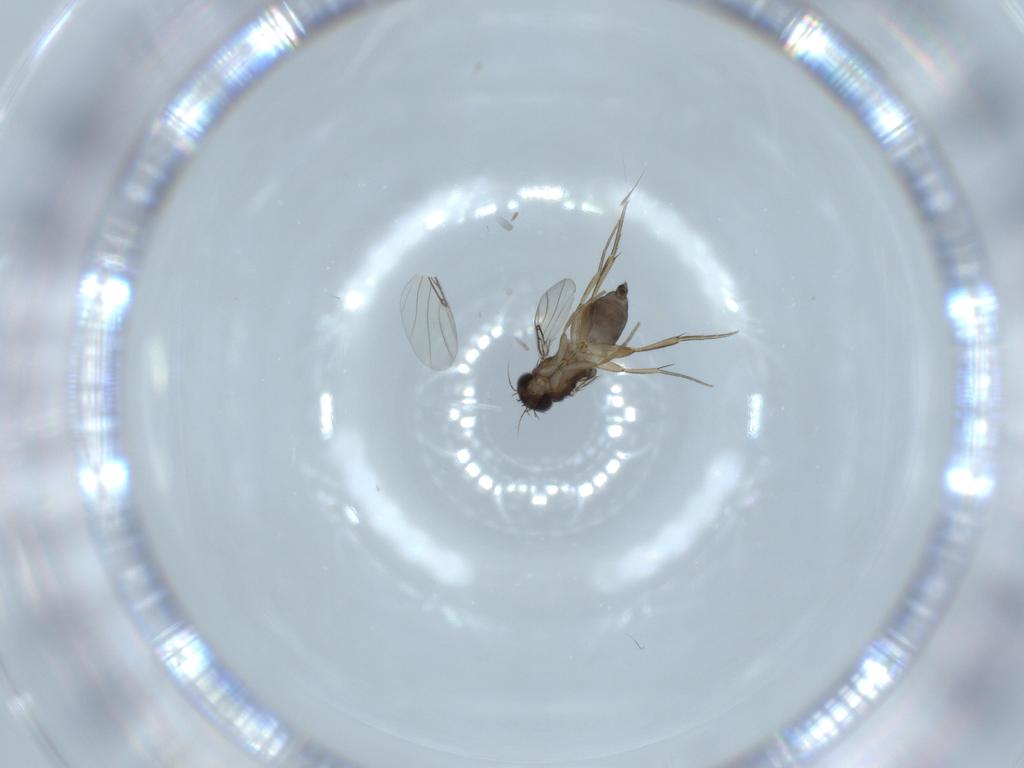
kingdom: Animalia
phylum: Arthropoda
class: Insecta
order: Diptera
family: Phoridae
